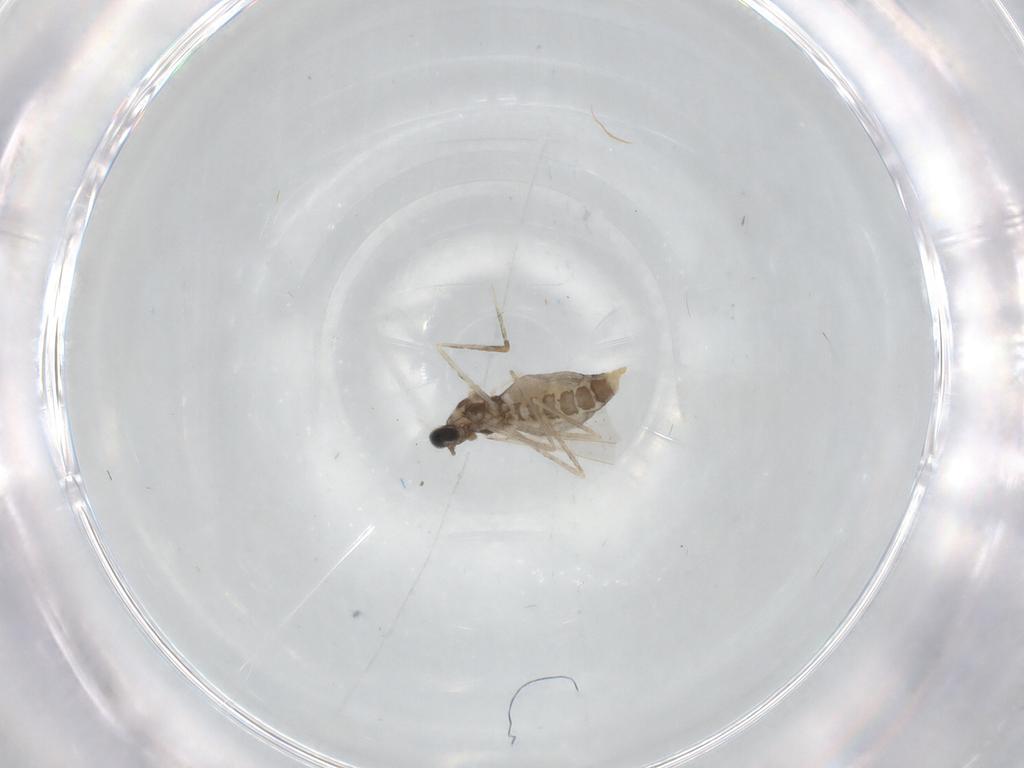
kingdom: Animalia
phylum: Arthropoda
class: Insecta
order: Diptera
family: Cecidomyiidae
